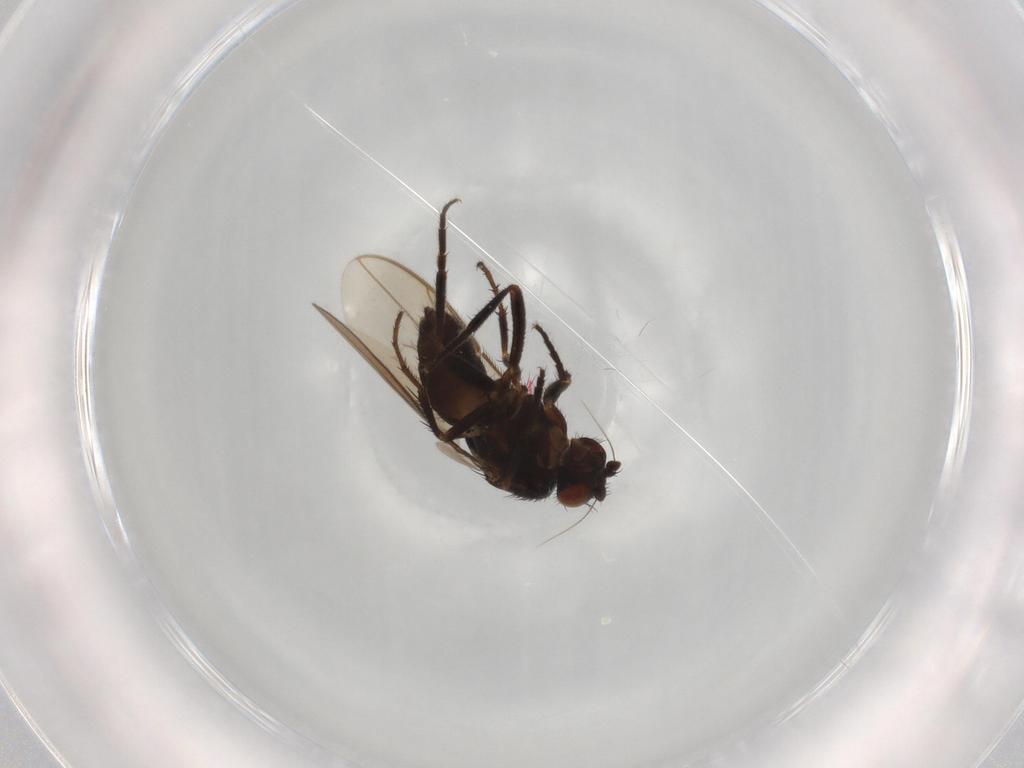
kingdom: Animalia
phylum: Arthropoda
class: Insecta
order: Diptera
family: Sphaeroceridae
